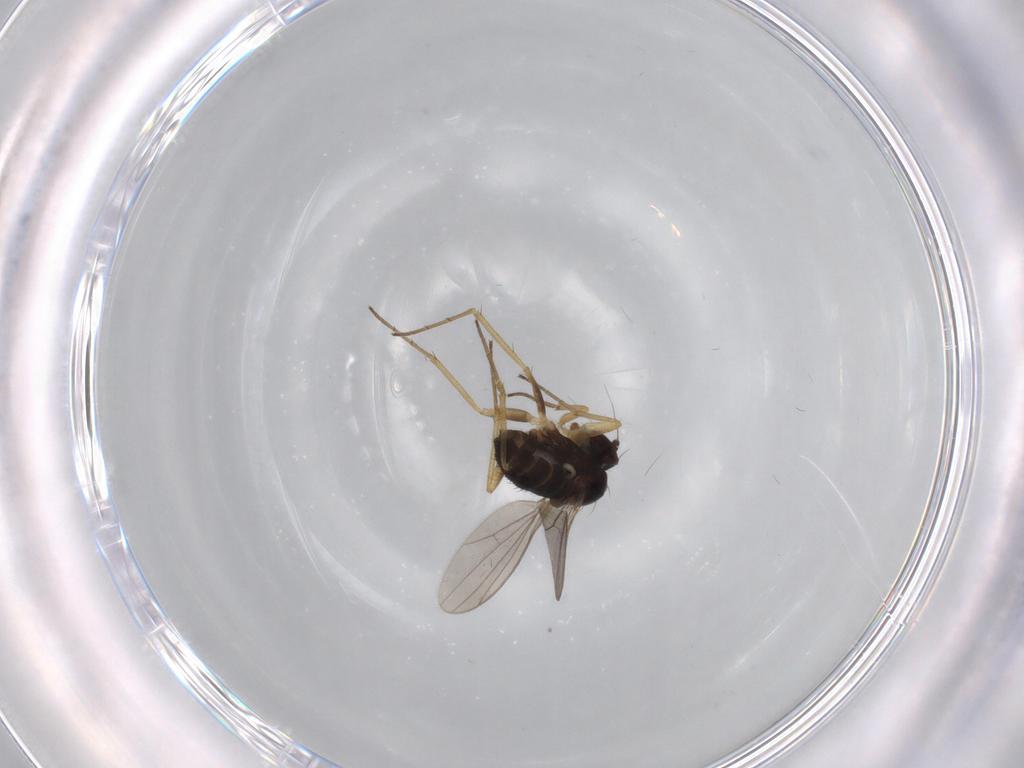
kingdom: Animalia
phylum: Arthropoda
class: Insecta
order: Diptera
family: Dolichopodidae
